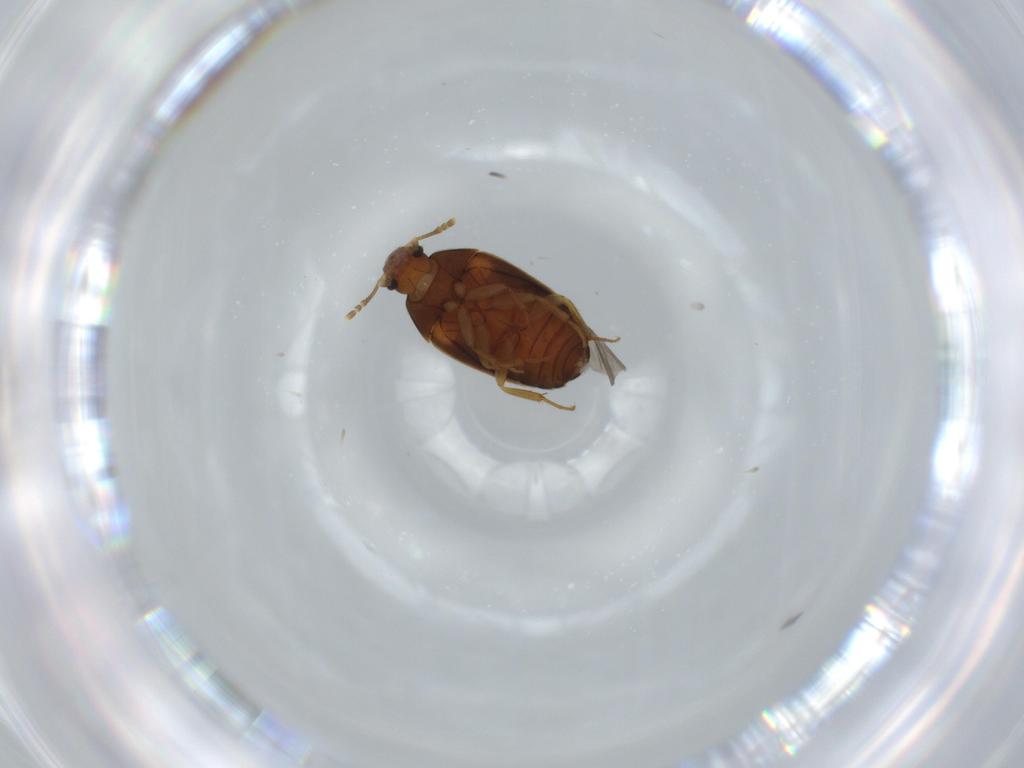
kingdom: Animalia
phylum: Arthropoda
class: Insecta
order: Coleoptera
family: Mycetophagidae
